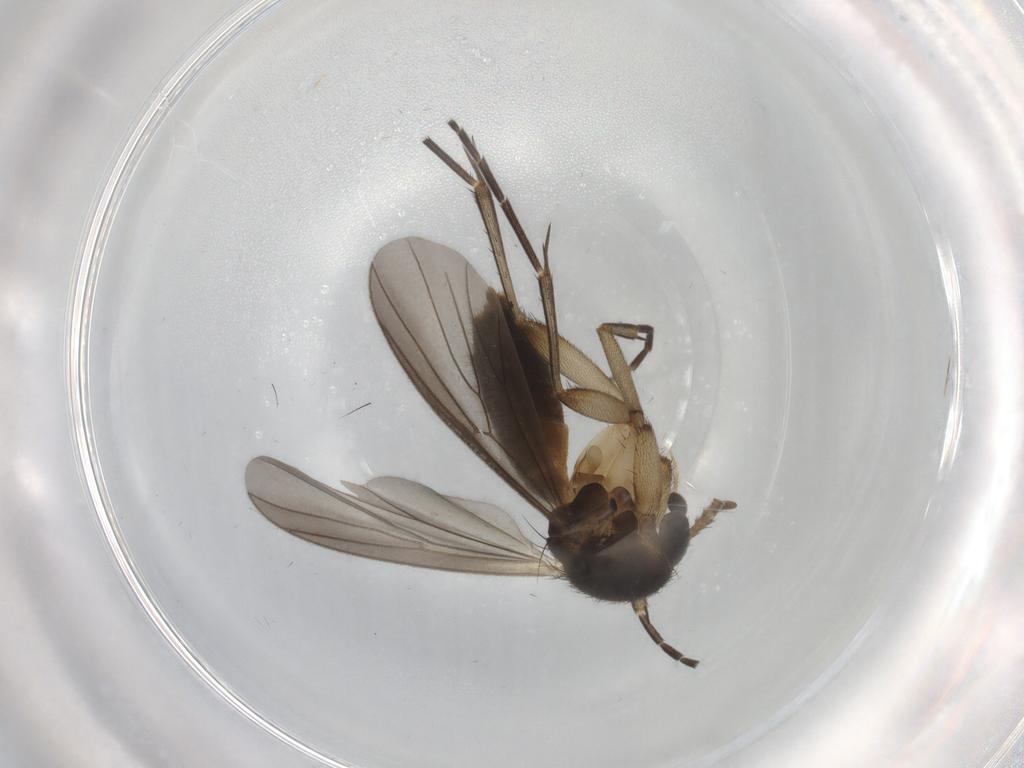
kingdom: Animalia
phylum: Arthropoda
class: Insecta
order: Diptera
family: Mycetophilidae
